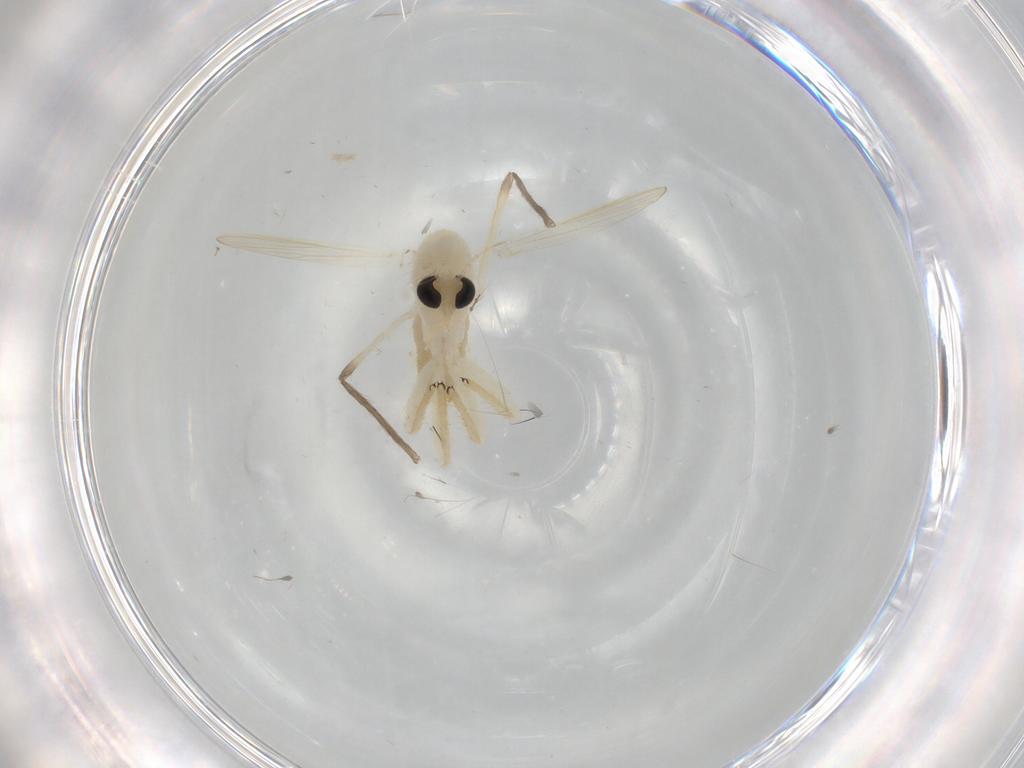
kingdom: Animalia
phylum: Arthropoda
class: Insecta
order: Diptera
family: Chironomidae
